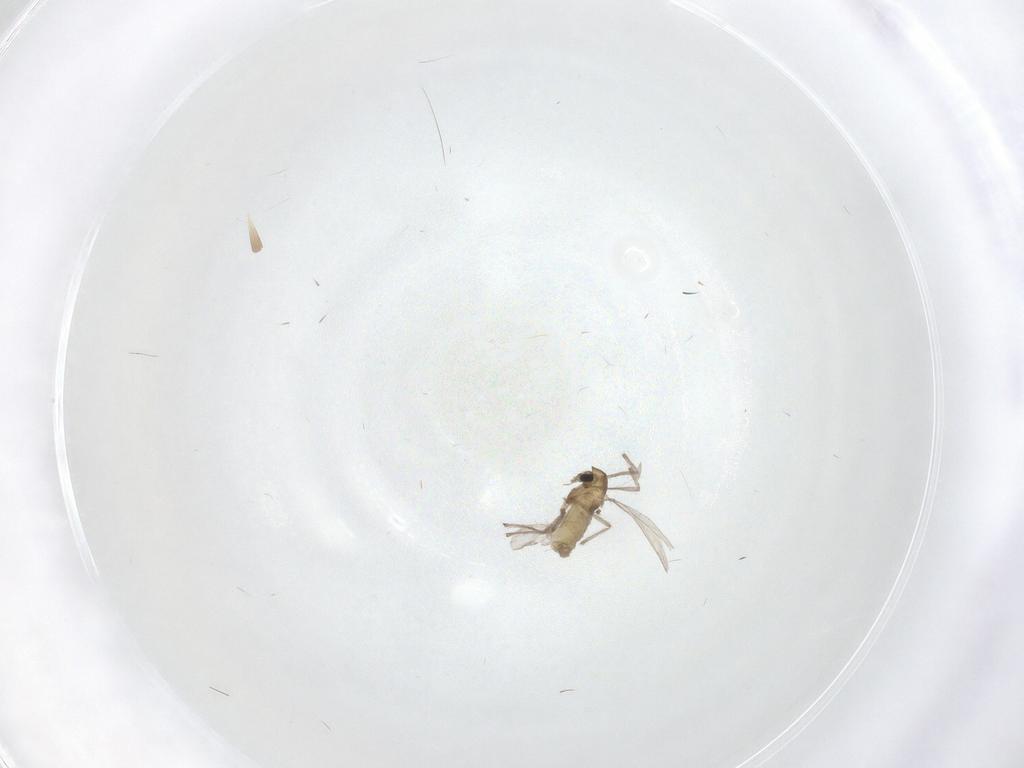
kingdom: Animalia
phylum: Arthropoda
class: Insecta
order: Diptera
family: Chironomidae
